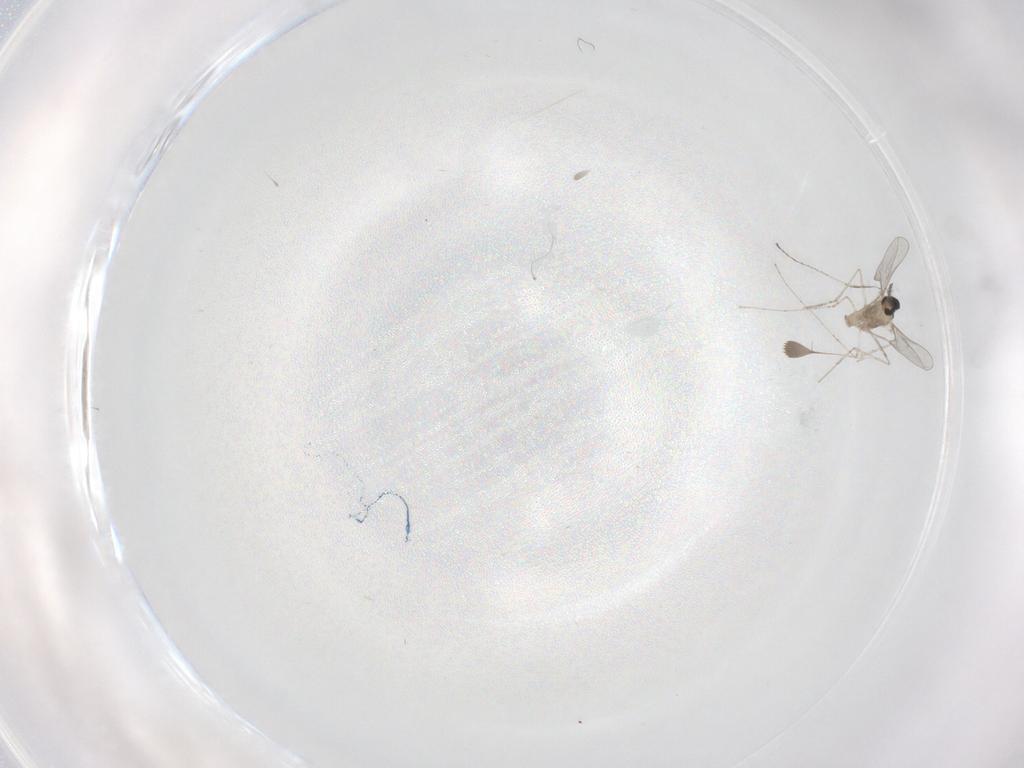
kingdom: Animalia
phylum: Arthropoda
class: Insecta
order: Diptera
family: Cecidomyiidae
